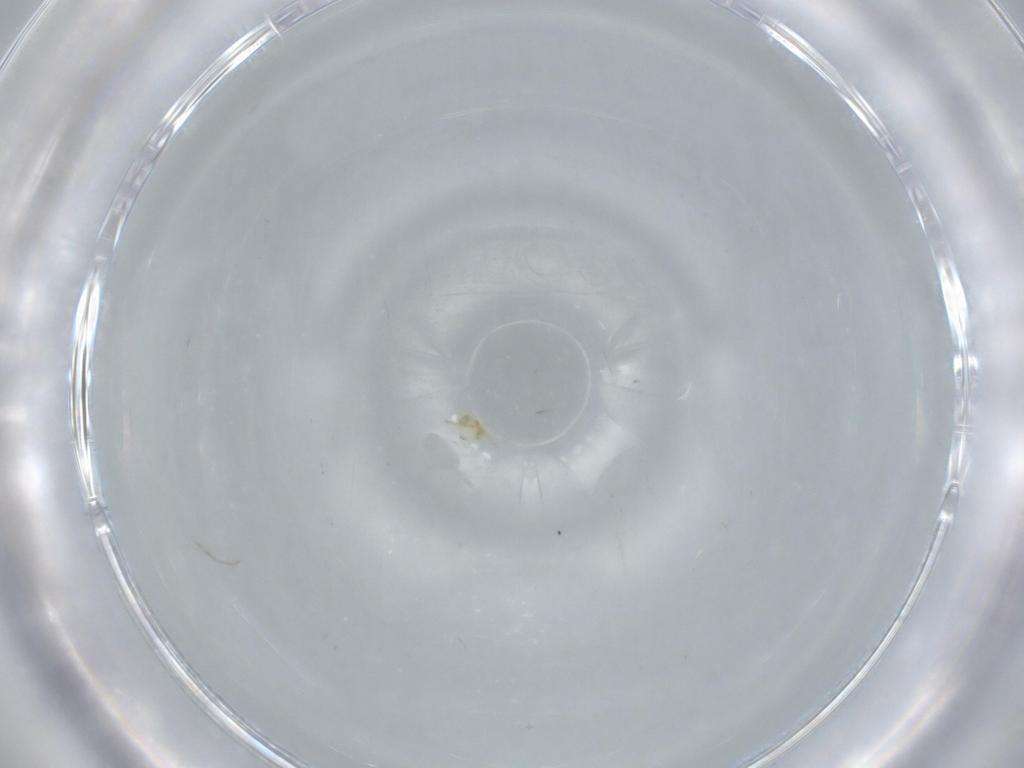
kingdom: Animalia
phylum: Arthropoda
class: Insecta
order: Hymenoptera
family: Aphelinidae
